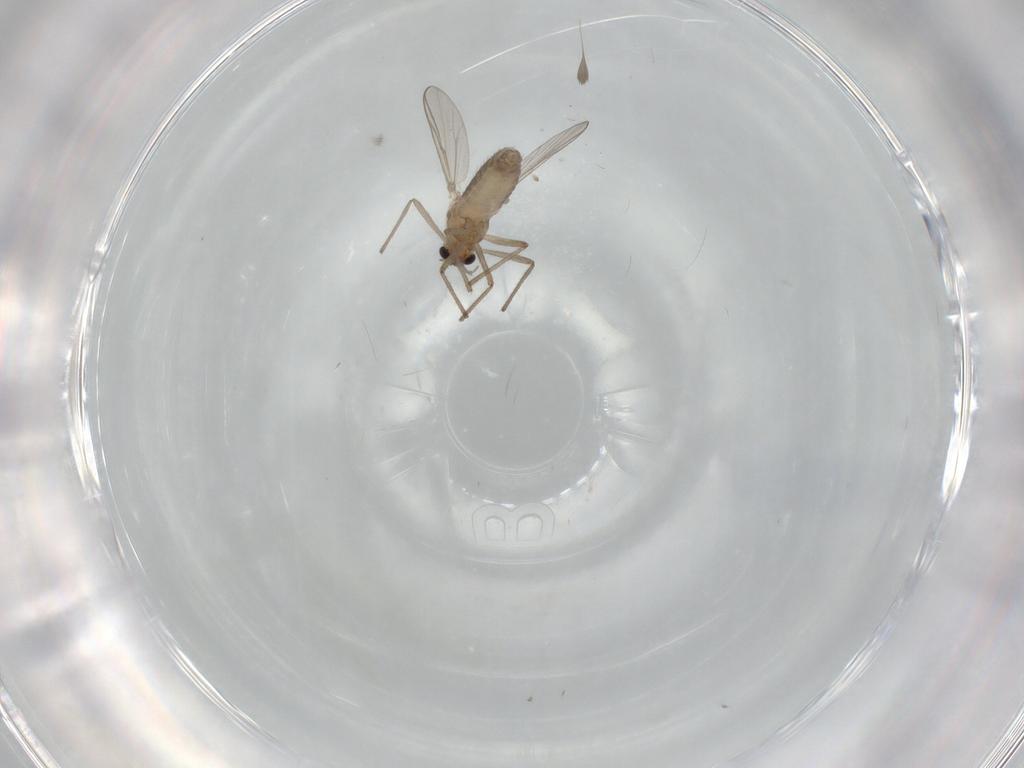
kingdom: Animalia
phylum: Arthropoda
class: Insecta
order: Diptera
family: Chironomidae
